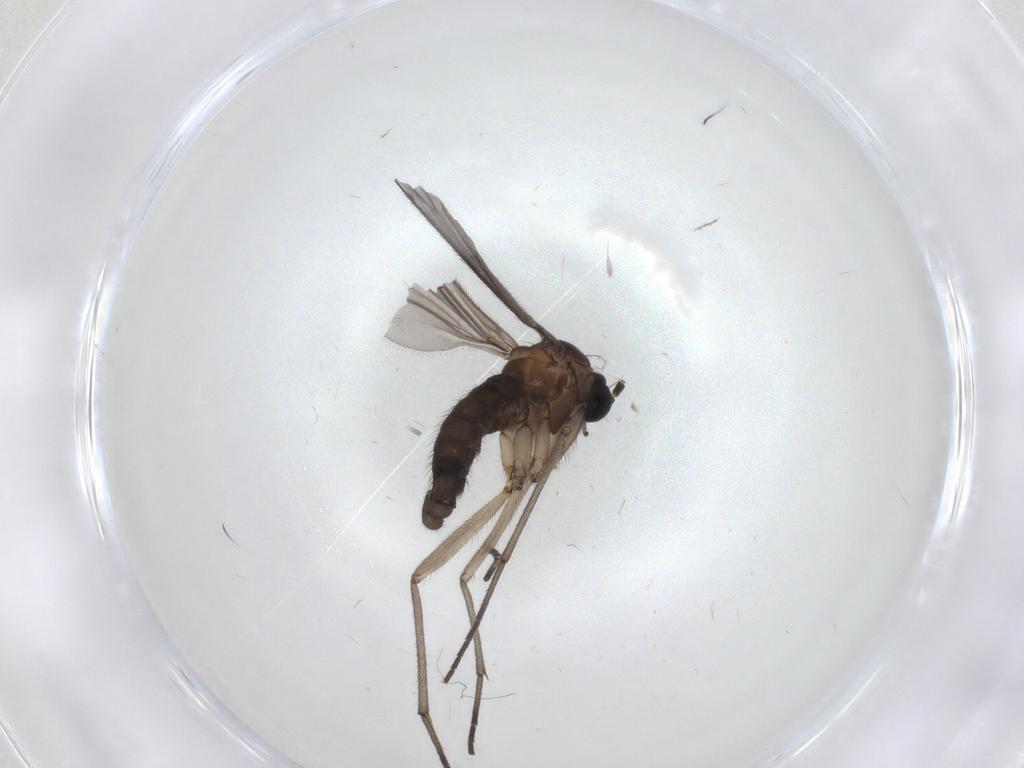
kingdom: Animalia
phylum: Arthropoda
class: Insecta
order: Diptera
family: Sciaridae
